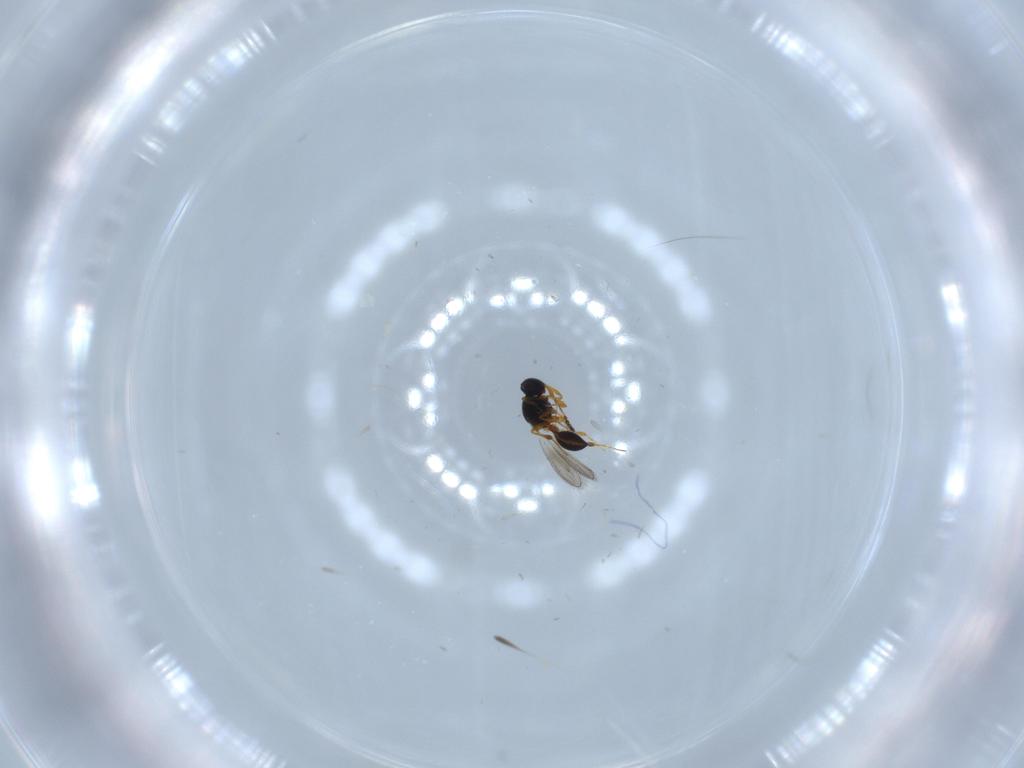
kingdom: Animalia
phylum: Arthropoda
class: Insecta
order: Hymenoptera
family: Platygastridae
